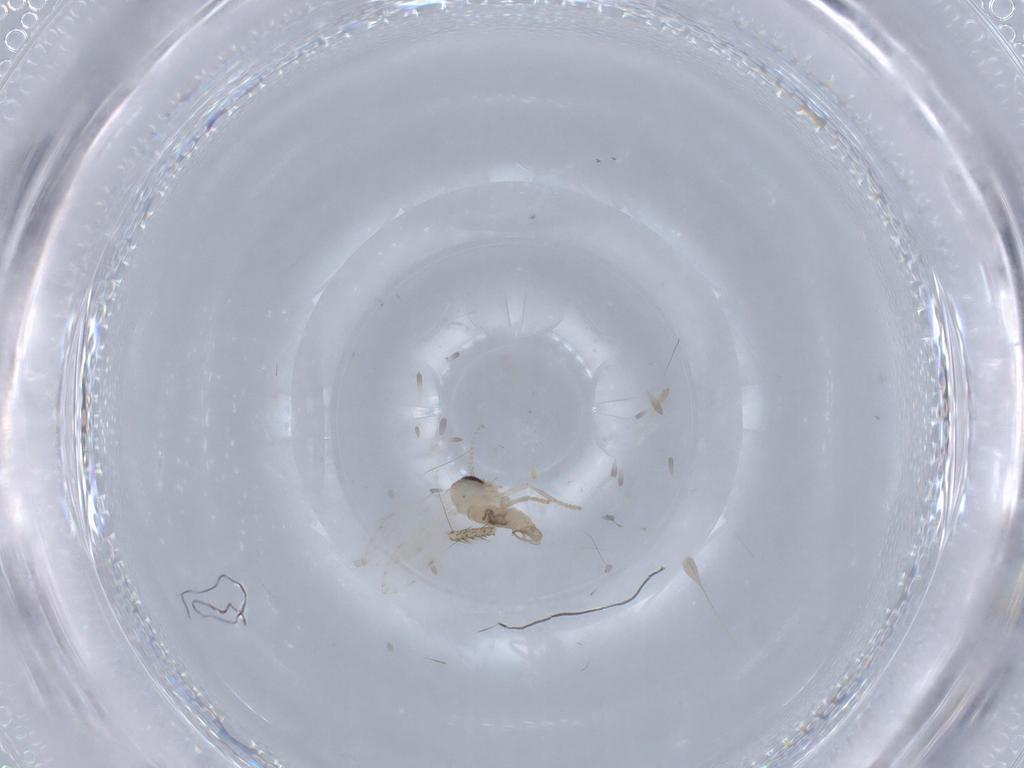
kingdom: Animalia
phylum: Arthropoda
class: Insecta
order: Diptera
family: Psychodidae
